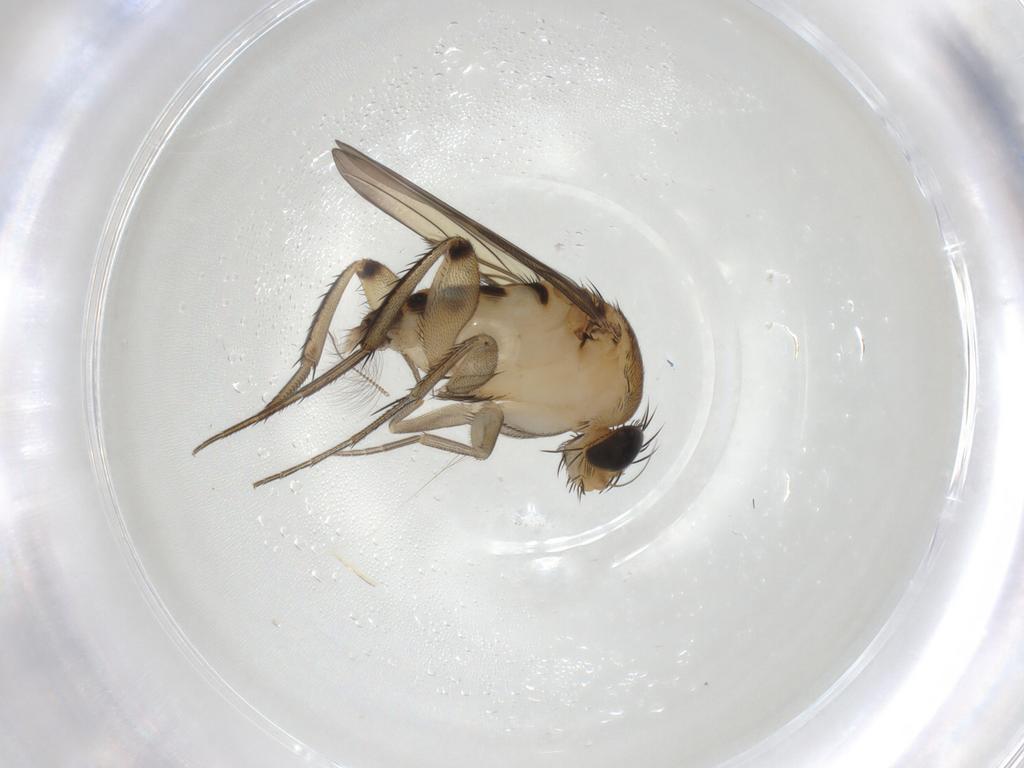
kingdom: Animalia
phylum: Arthropoda
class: Insecta
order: Diptera
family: Phoridae
